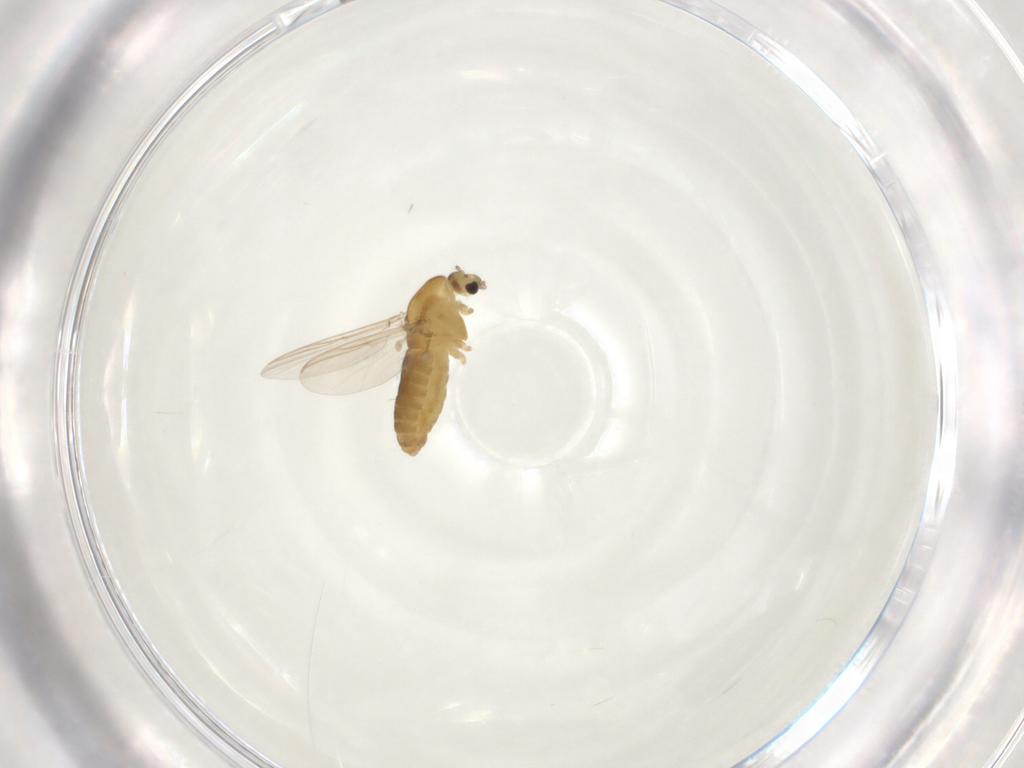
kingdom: Animalia
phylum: Arthropoda
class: Insecta
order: Diptera
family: Chironomidae
